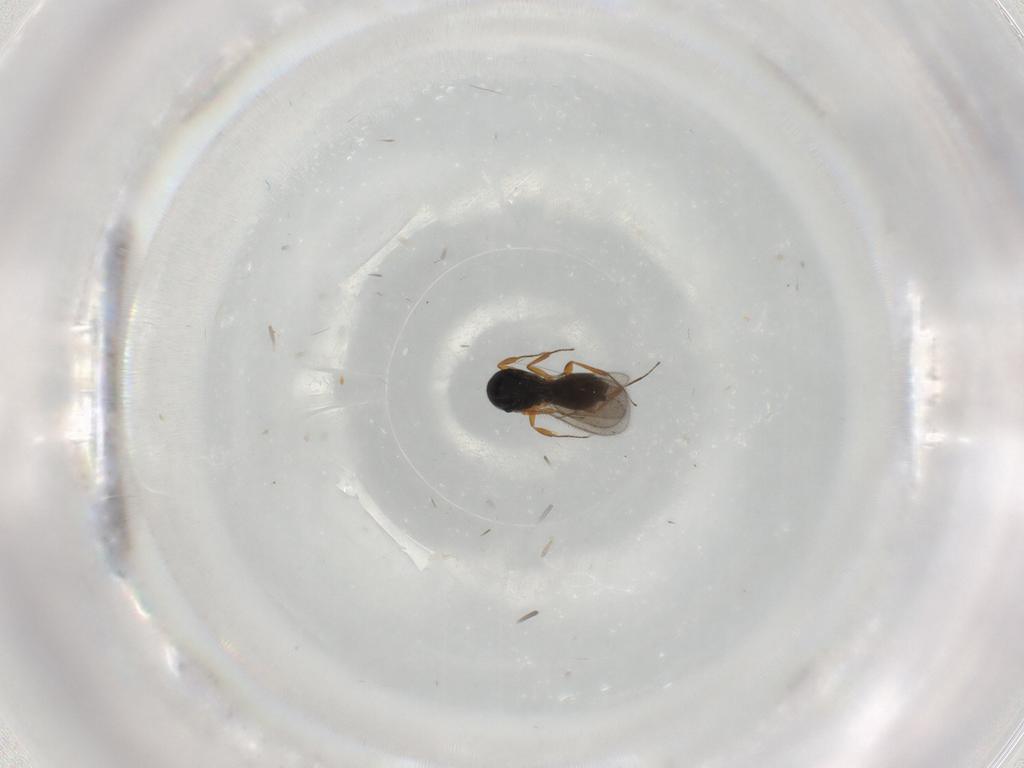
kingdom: Animalia
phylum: Arthropoda
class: Insecta
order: Hymenoptera
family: Scelionidae
